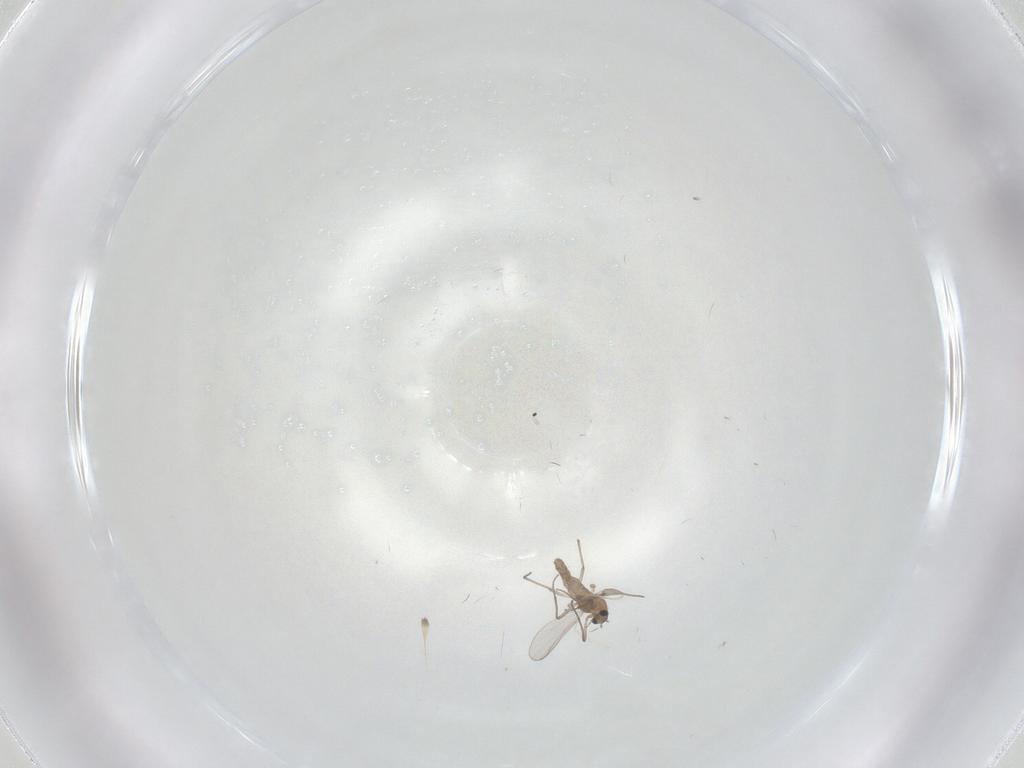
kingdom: Animalia
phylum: Arthropoda
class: Insecta
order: Diptera
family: Chironomidae
